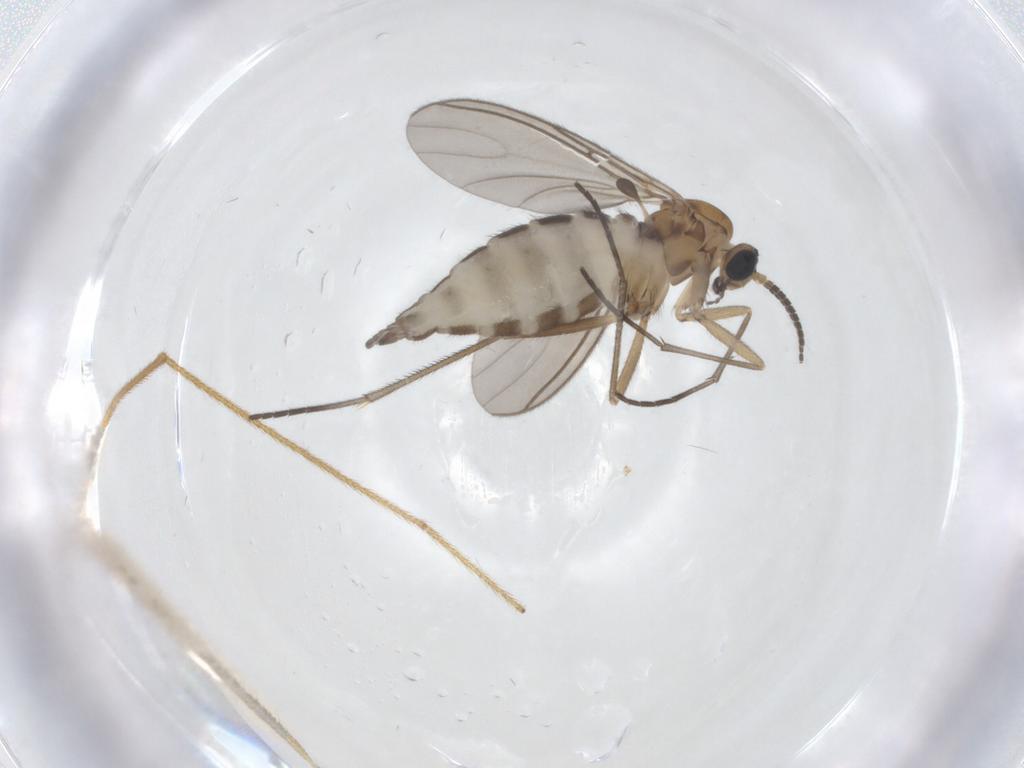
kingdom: Animalia
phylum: Arthropoda
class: Insecta
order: Diptera
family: Sciaridae
